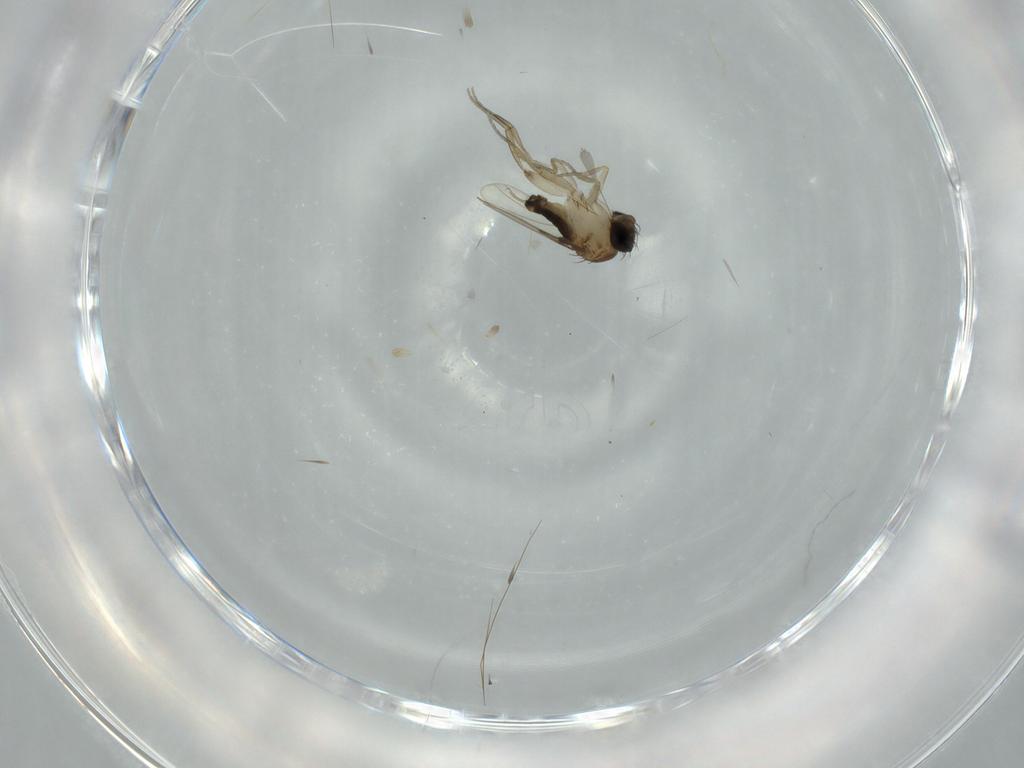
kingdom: Animalia
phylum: Arthropoda
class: Insecta
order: Diptera
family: Phoridae
